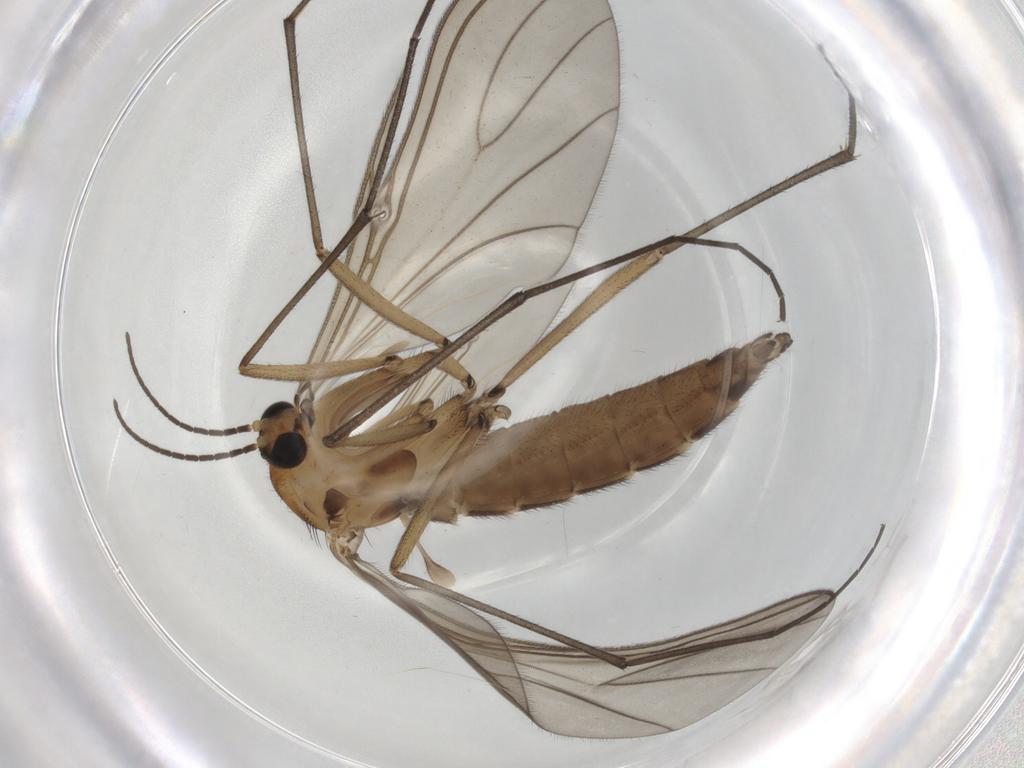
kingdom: Animalia
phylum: Arthropoda
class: Insecta
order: Diptera
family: Sciaridae
